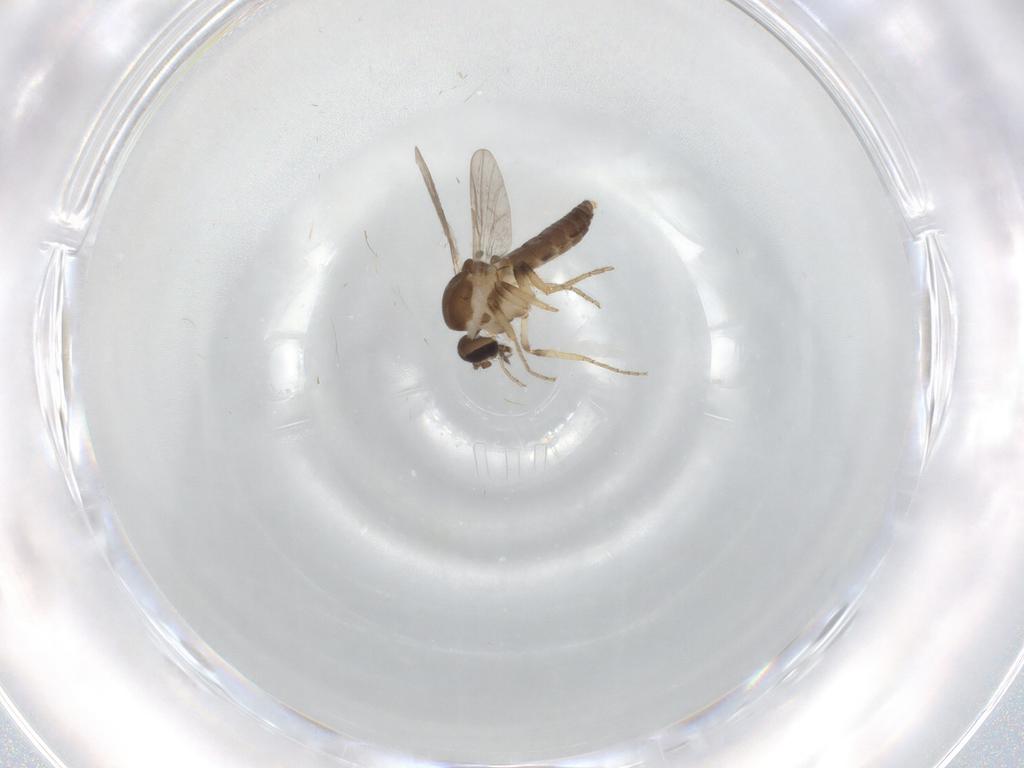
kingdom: Animalia
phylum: Arthropoda
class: Insecta
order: Diptera
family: Ceratopogonidae
